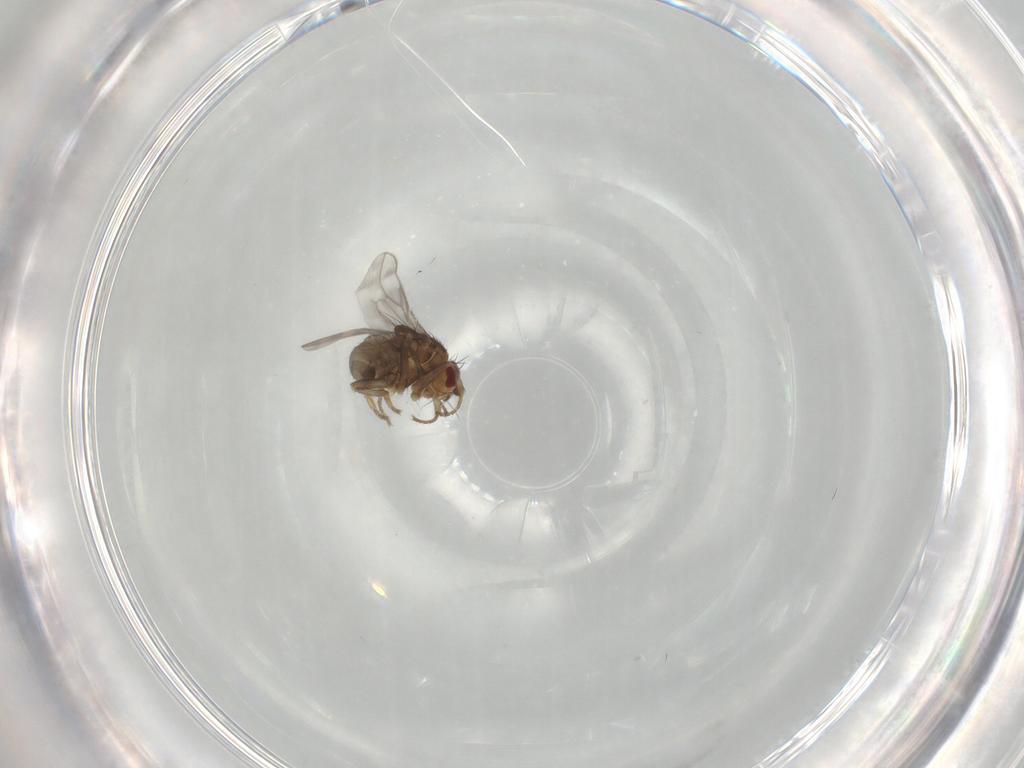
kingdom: Animalia
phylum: Arthropoda
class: Insecta
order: Diptera
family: Sphaeroceridae
